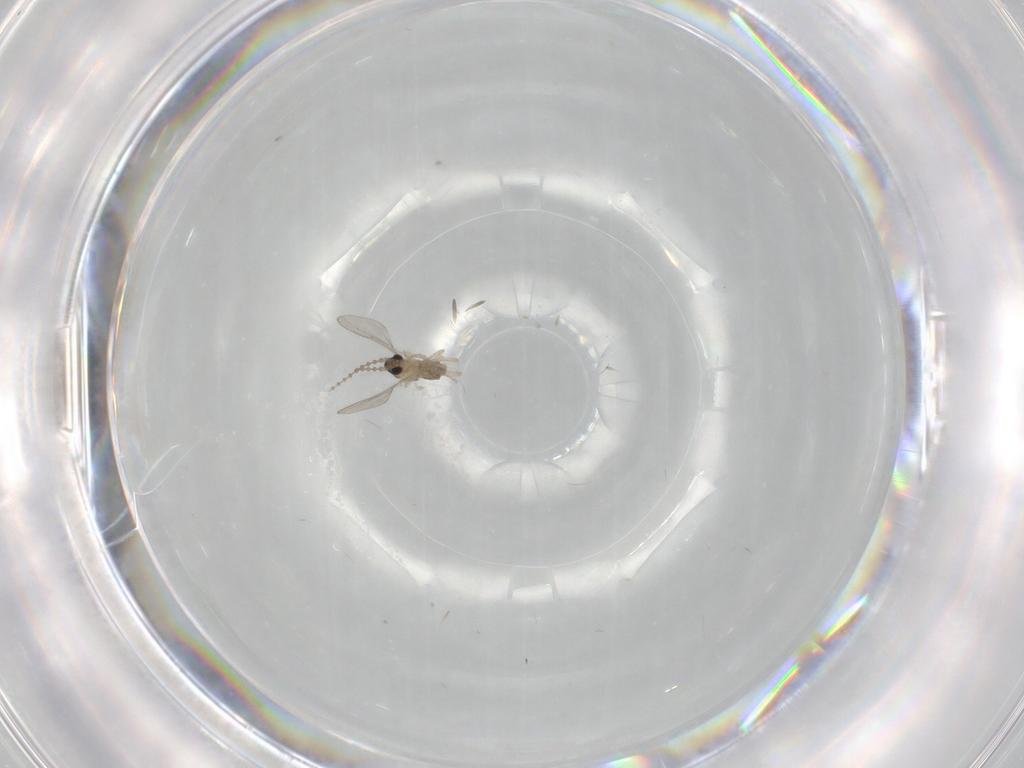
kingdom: Animalia
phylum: Arthropoda
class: Insecta
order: Diptera
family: Cecidomyiidae
